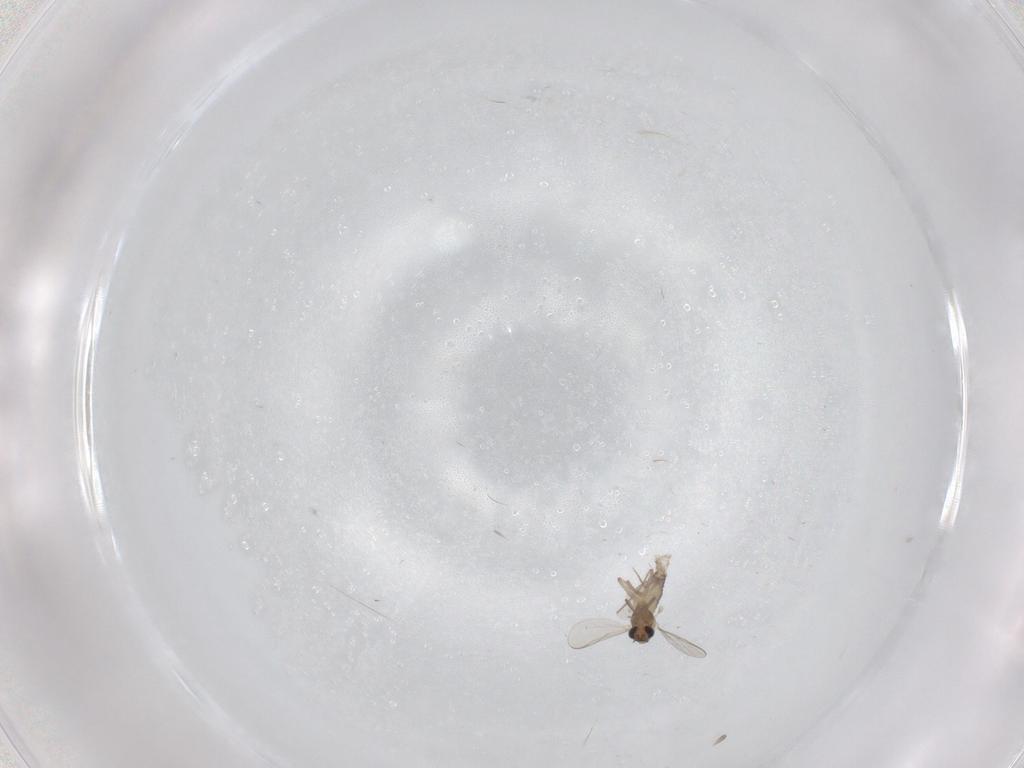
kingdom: Animalia
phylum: Arthropoda
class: Insecta
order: Diptera
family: Chironomidae
